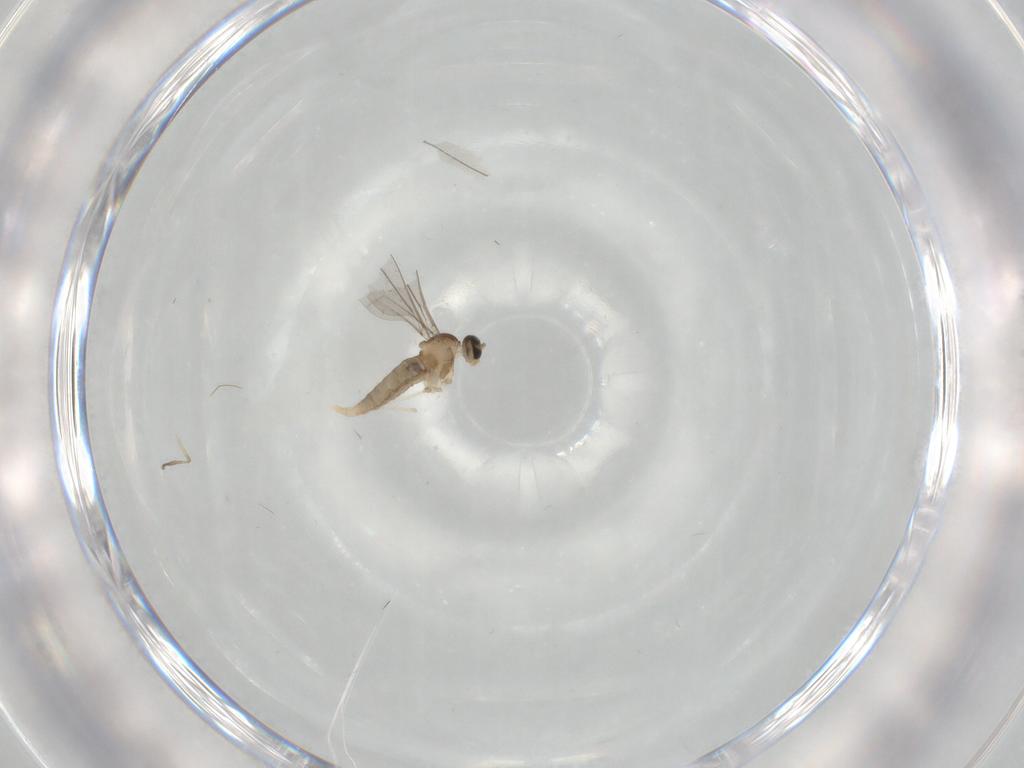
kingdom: Animalia
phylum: Arthropoda
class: Insecta
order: Diptera
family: Psychodidae
